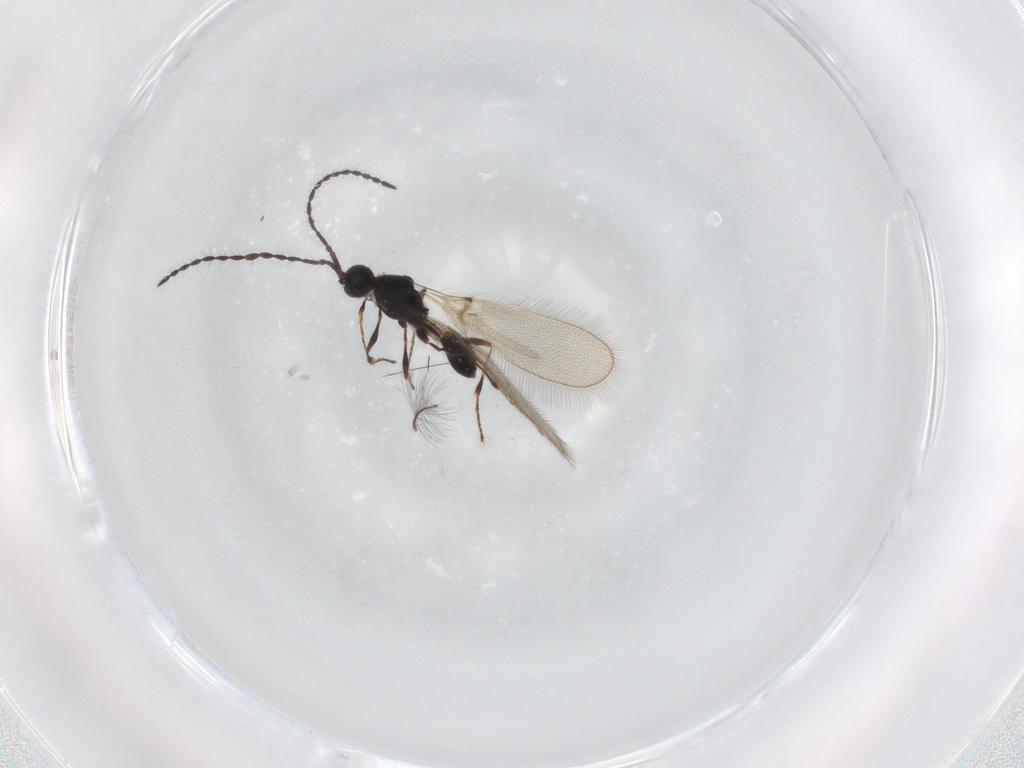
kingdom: Animalia
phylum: Arthropoda
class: Insecta
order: Hymenoptera
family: Diapriidae
